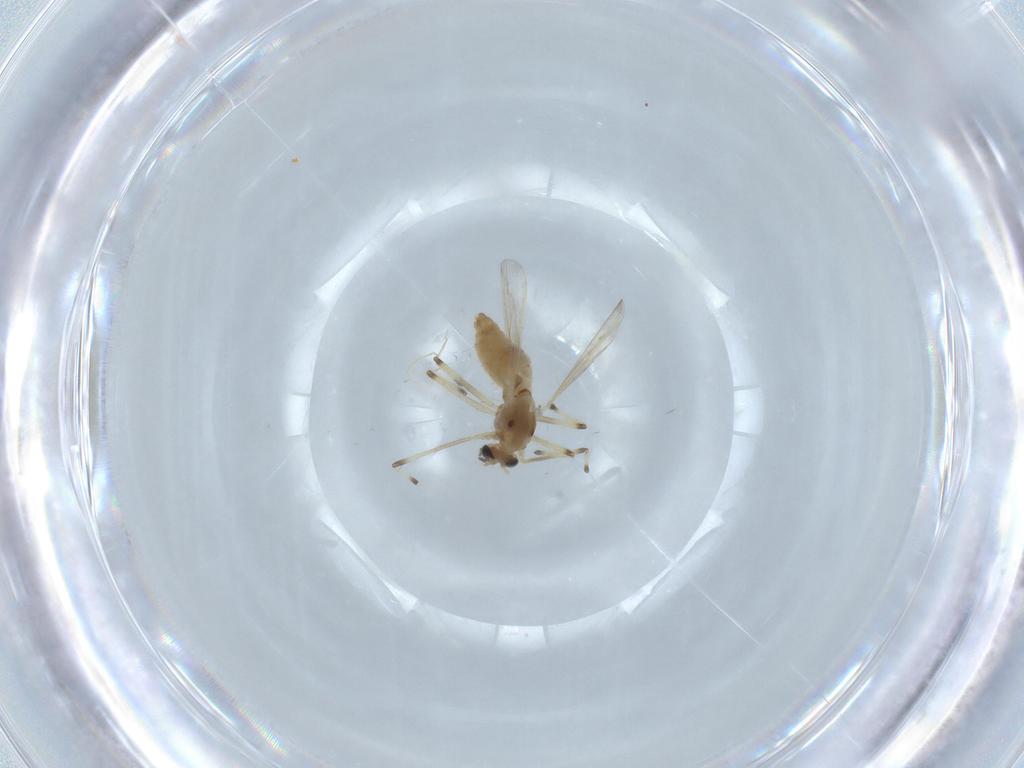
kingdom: Animalia
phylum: Arthropoda
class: Insecta
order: Diptera
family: Chironomidae
